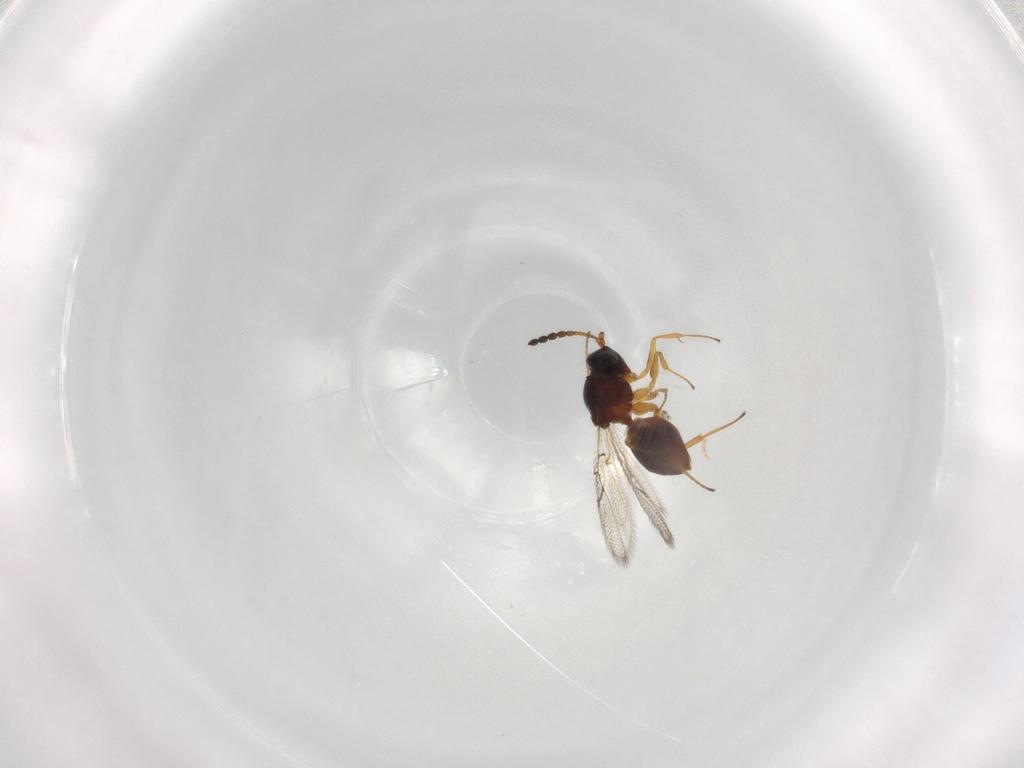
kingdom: Animalia
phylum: Arthropoda
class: Insecta
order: Hymenoptera
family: Figitidae
